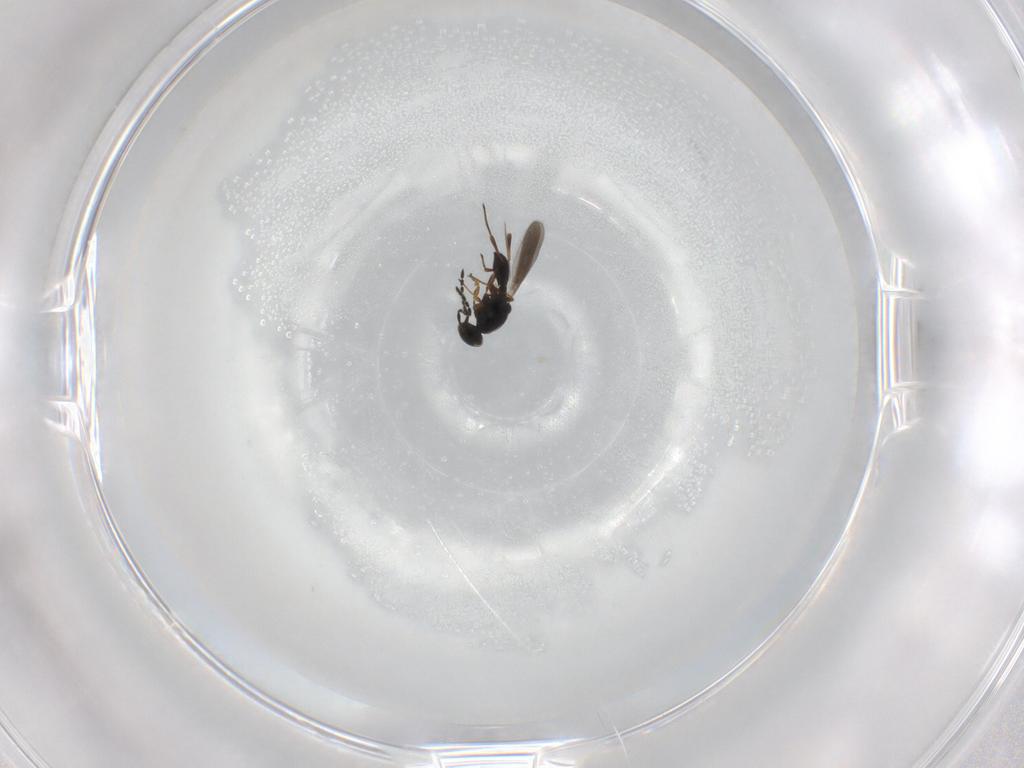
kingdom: Animalia
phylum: Arthropoda
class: Insecta
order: Hymenoptera
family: Platygastridae
